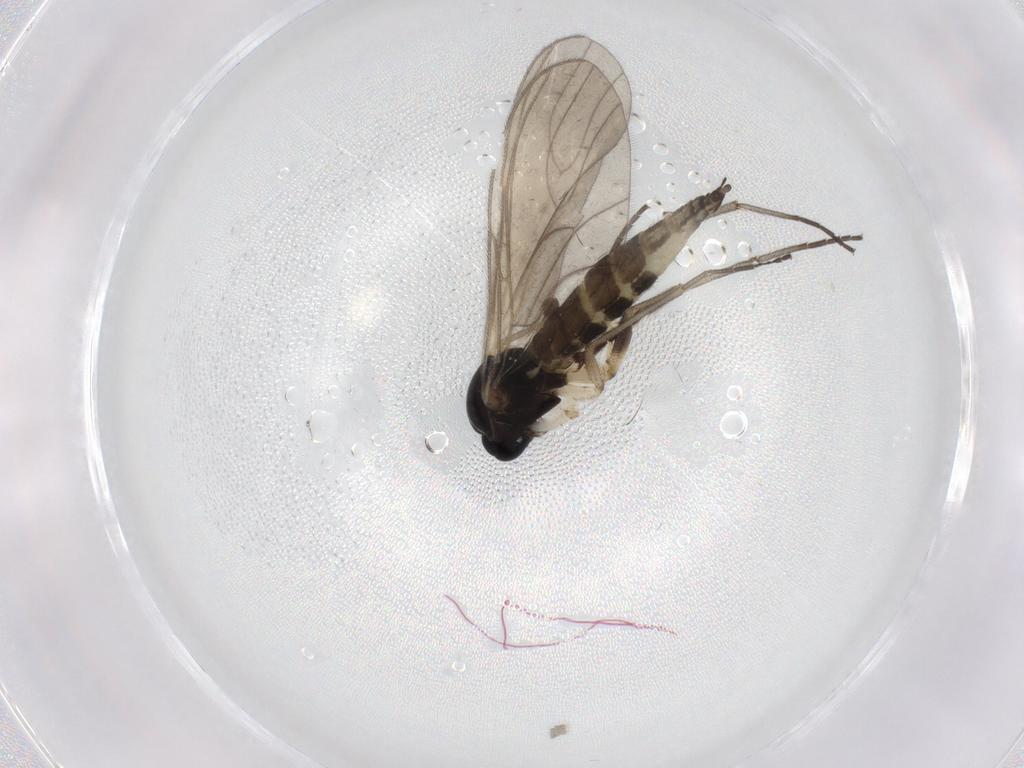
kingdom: Animalia
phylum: Arthropoda
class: Insecta
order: Diptera
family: Sciaridae
